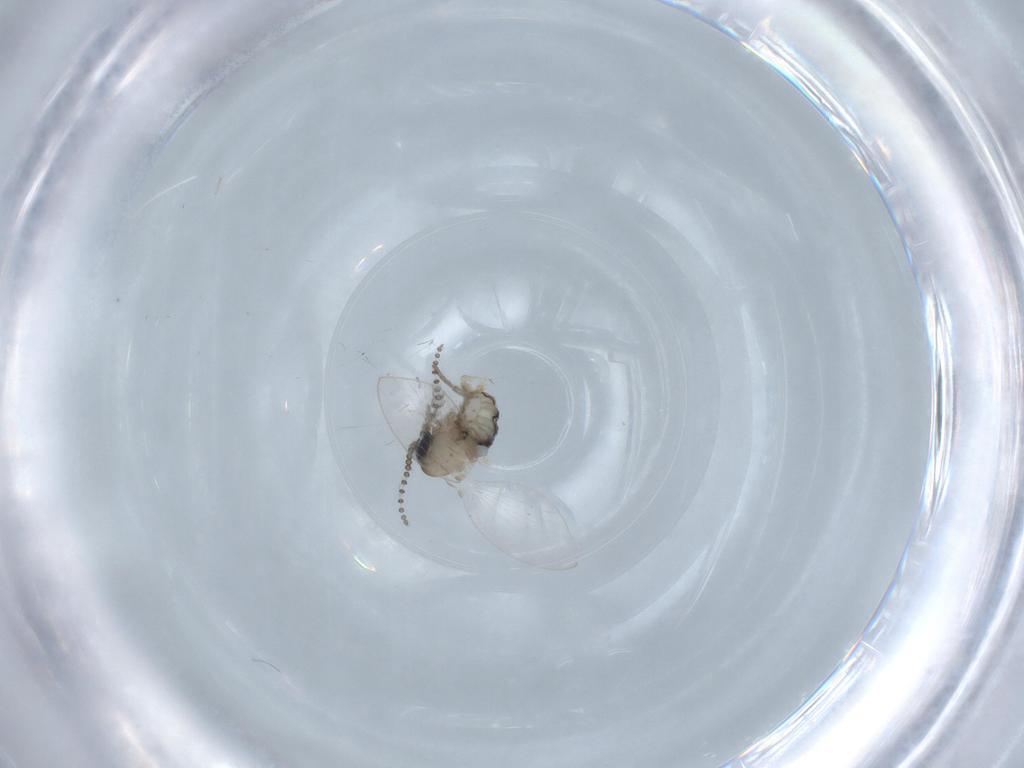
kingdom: Animalia
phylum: Arthropoda
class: Insecta
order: Diptera
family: Psychodidae
